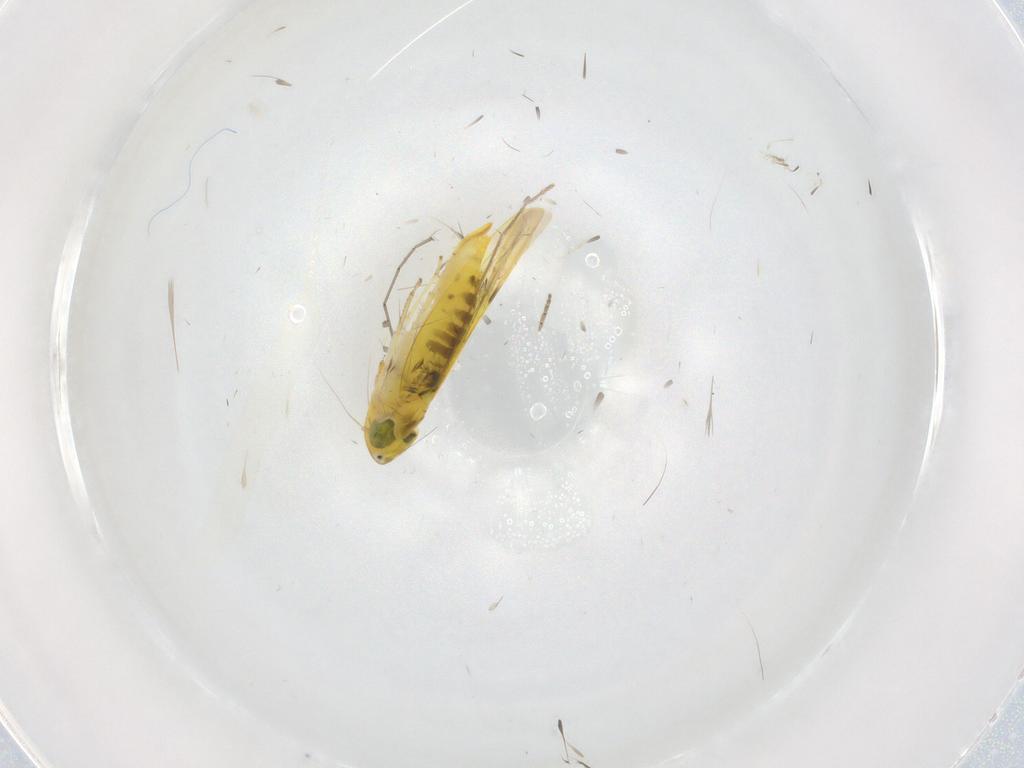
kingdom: Animalia
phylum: Arthropoda
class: Insecta
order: Hemiptera
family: Cicadellidae
